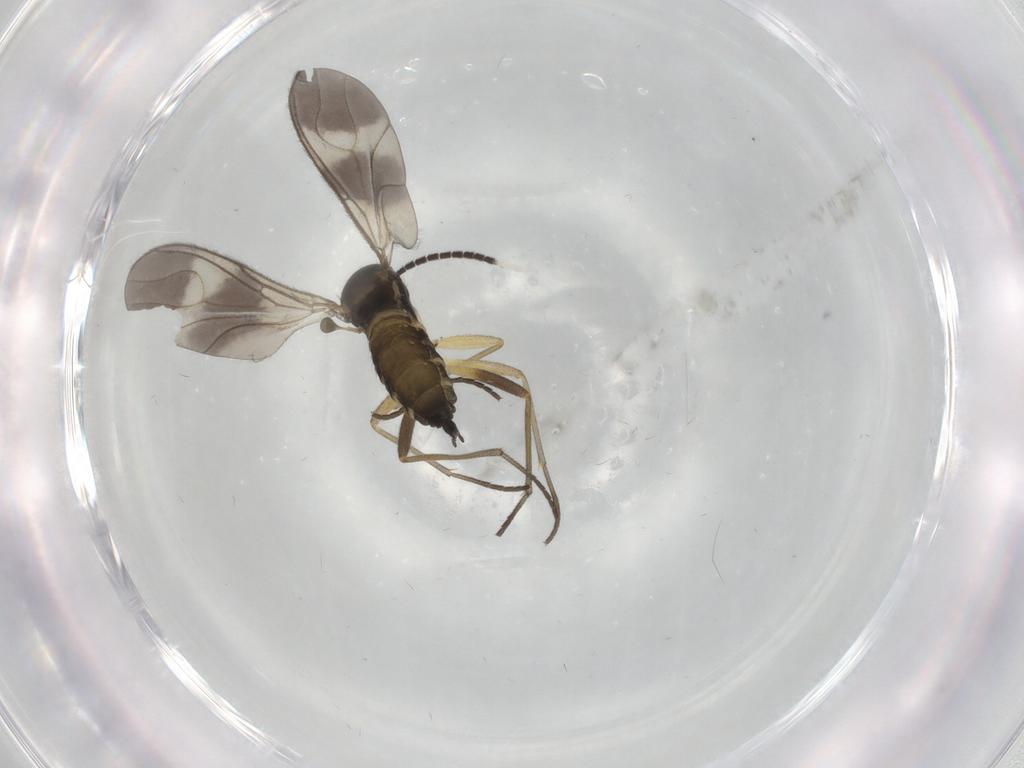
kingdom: Animalia
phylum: Arthropoda
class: Insecta
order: Diptera
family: Sciaridae
